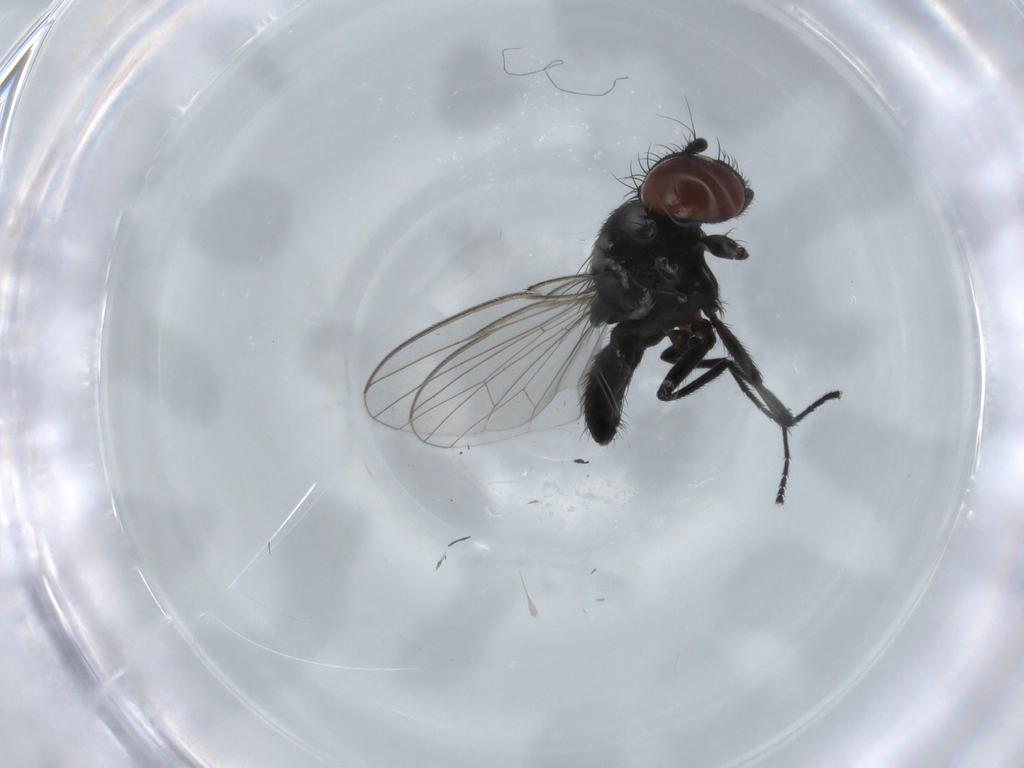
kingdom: Animalia
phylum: Arthropoda
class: Insecta
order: Diptera
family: Milichiidae
